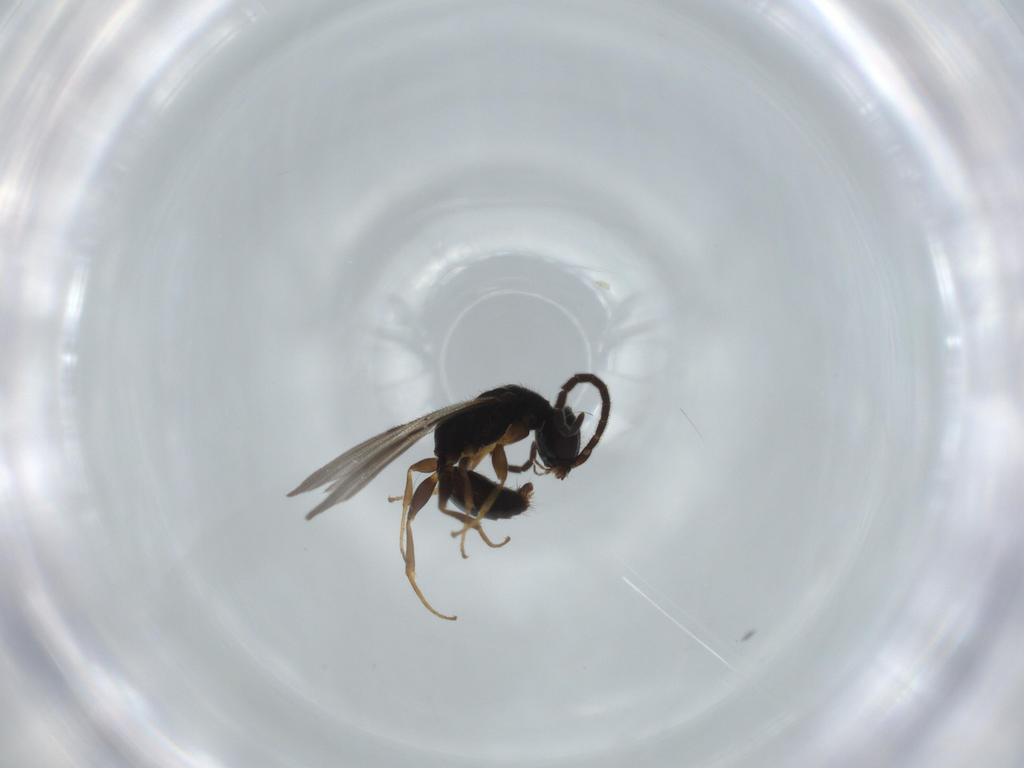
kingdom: Animalia
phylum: Arthropoda
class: Insecta
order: Hymenoptera
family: Bethylidae
